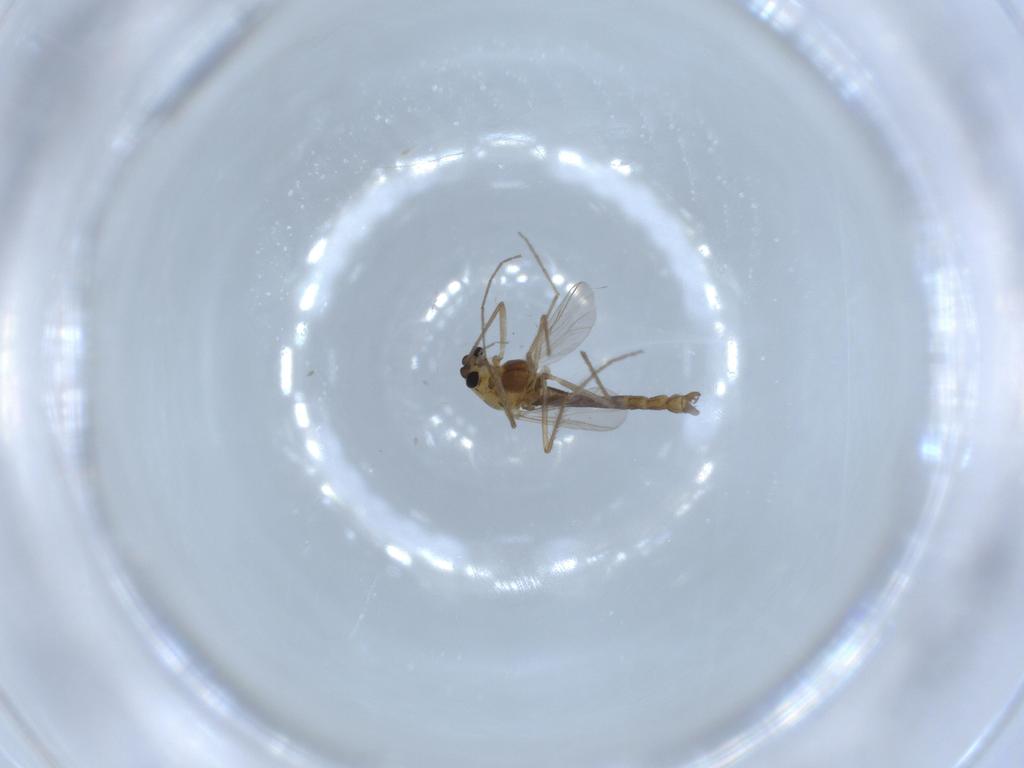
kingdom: Animalia
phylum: Arthropoda
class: Insecta
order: Diptera
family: Chironomidae
